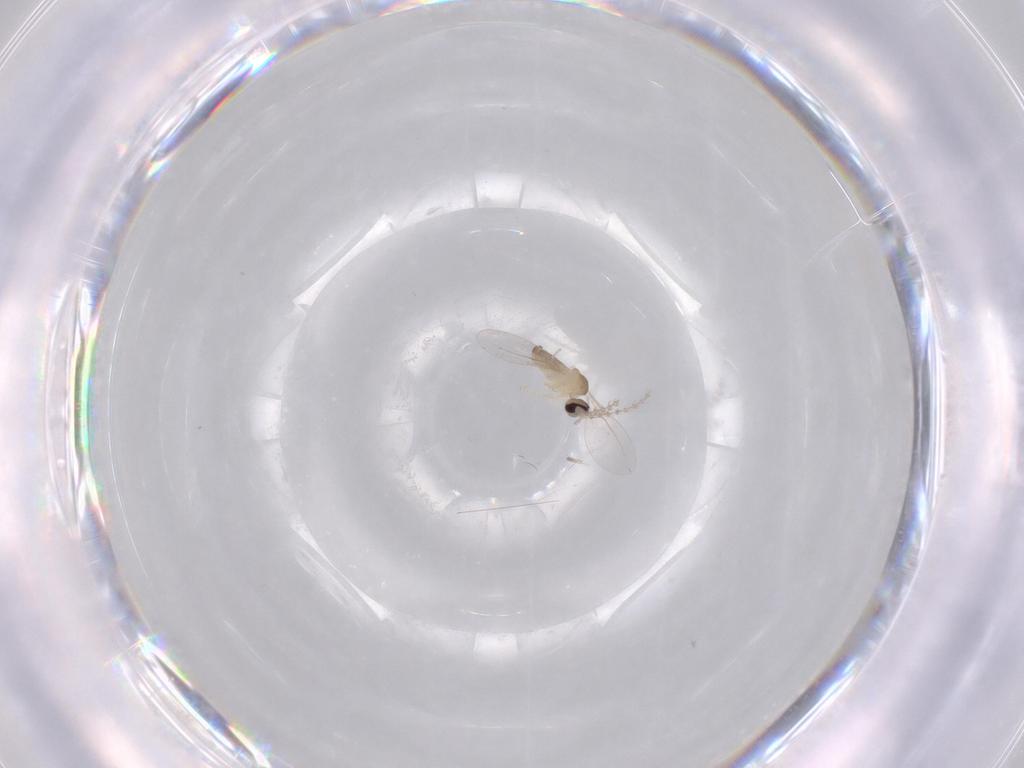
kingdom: Animalia
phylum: Arthropoda
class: Insecta
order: Diptera
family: Cecidomyiidae
